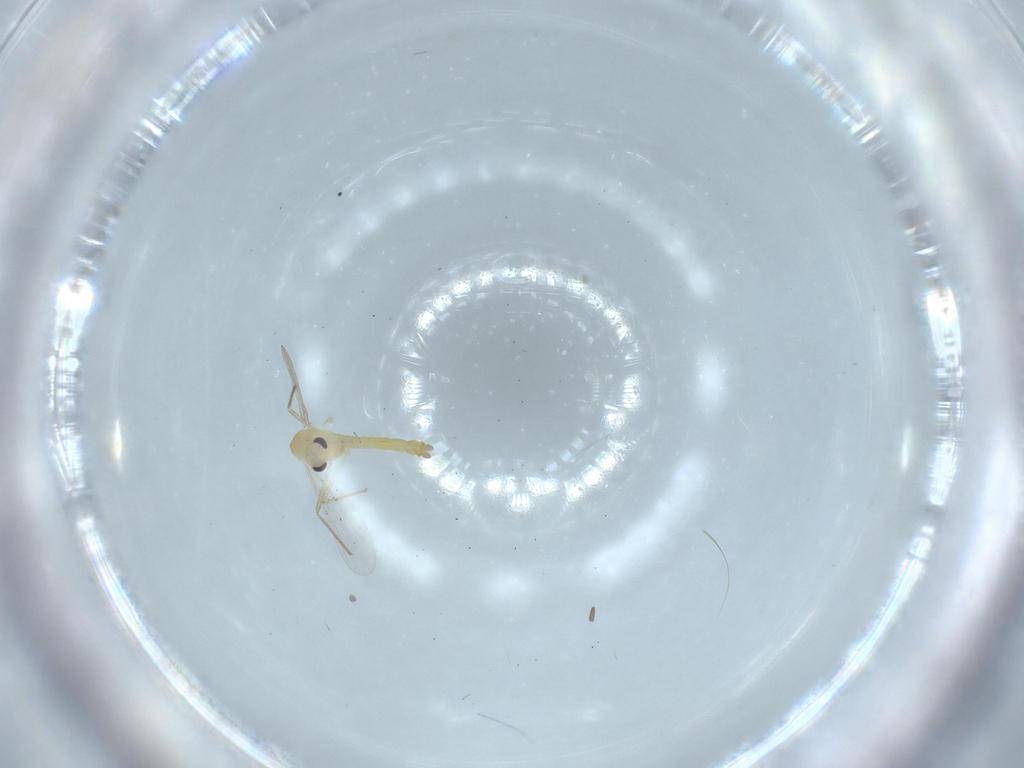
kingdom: Animalia
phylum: Arthropoda
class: Insecta
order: Diptera
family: Chironomidae
